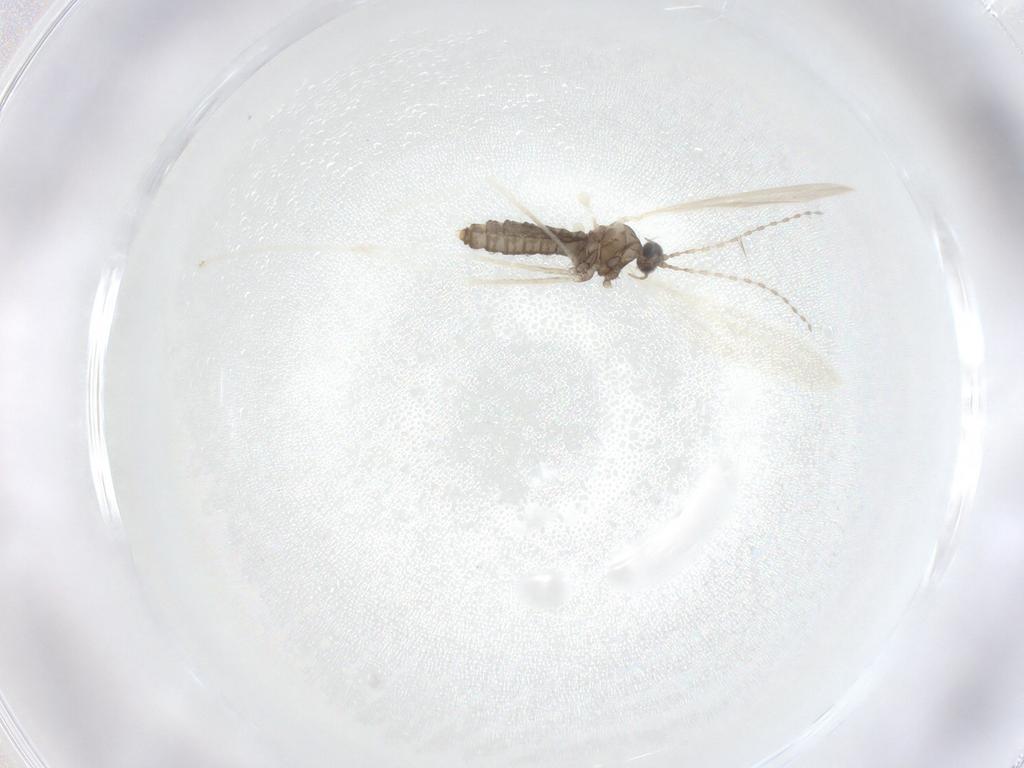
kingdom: Animalia
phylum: Arthropoda
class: Insecta
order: Diptera
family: Cecidomyiidae
